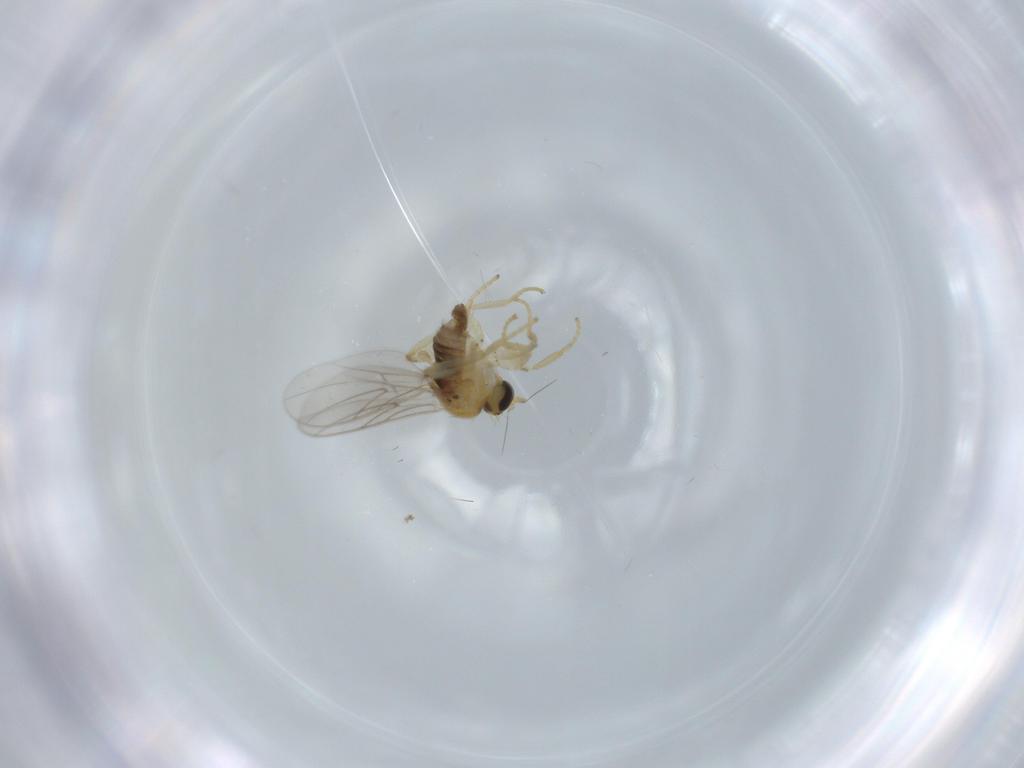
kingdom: Animalia
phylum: Arthropoda
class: Insecta
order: Diptera
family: Hybotidae
